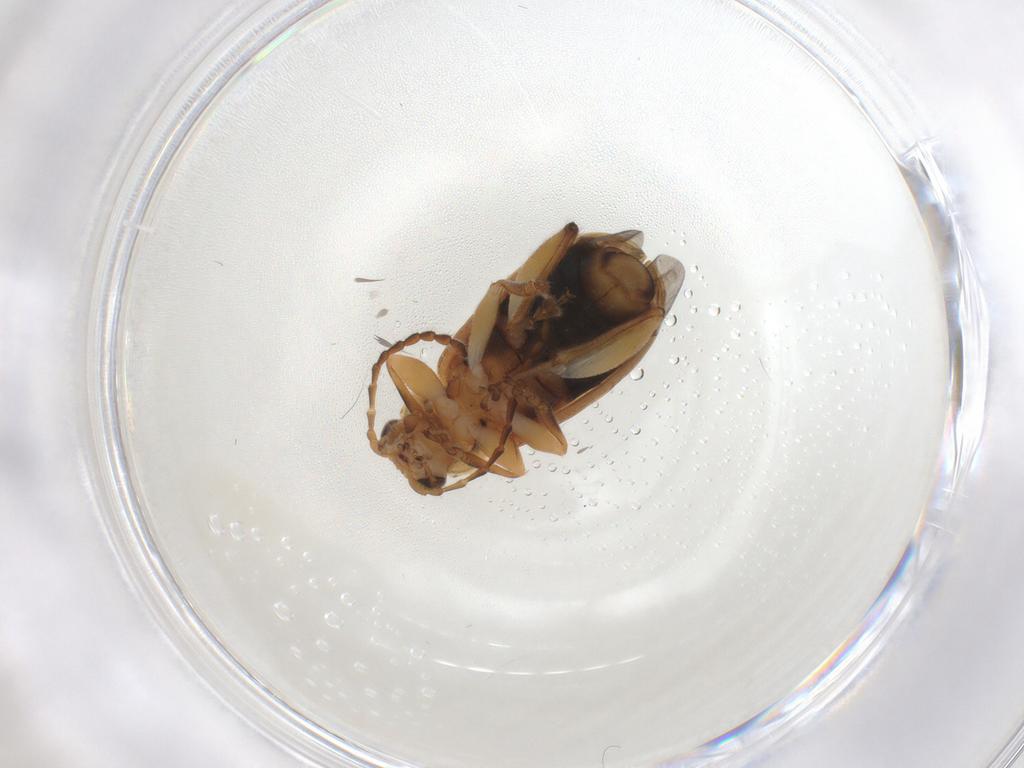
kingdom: Animalia
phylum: Arthropoda
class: Insecta
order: Coleoptera
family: Chrysomelidae
